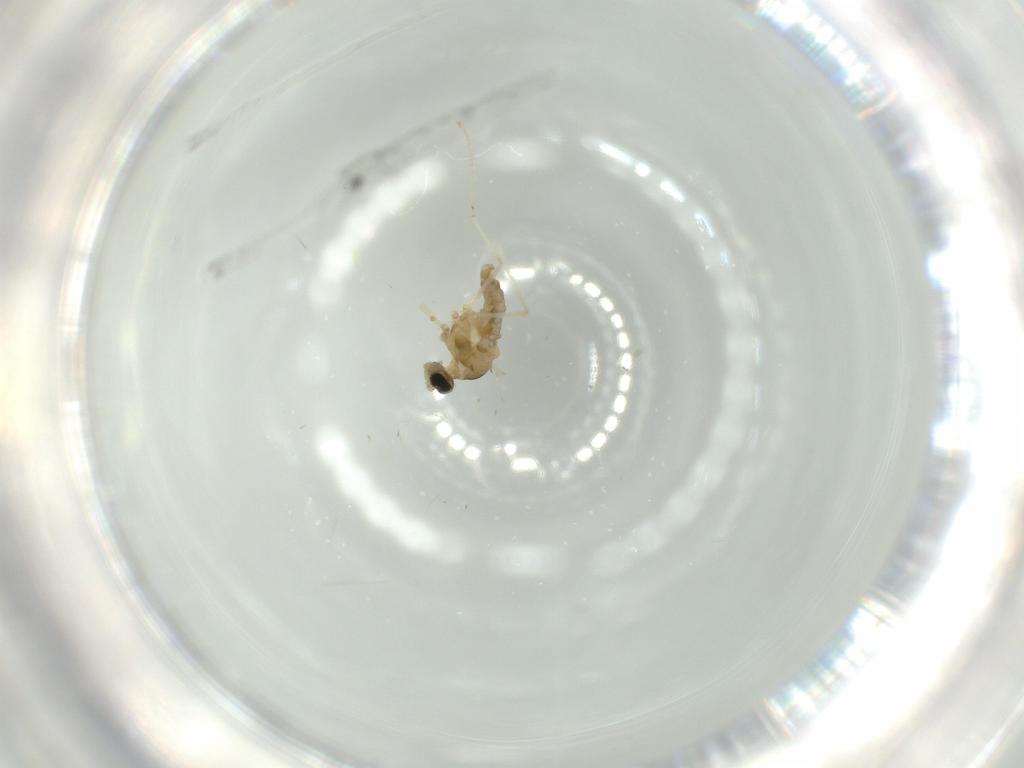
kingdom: Animalia
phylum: Arthropoda
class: Insecta
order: Diptera
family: Cecidomyiidae
